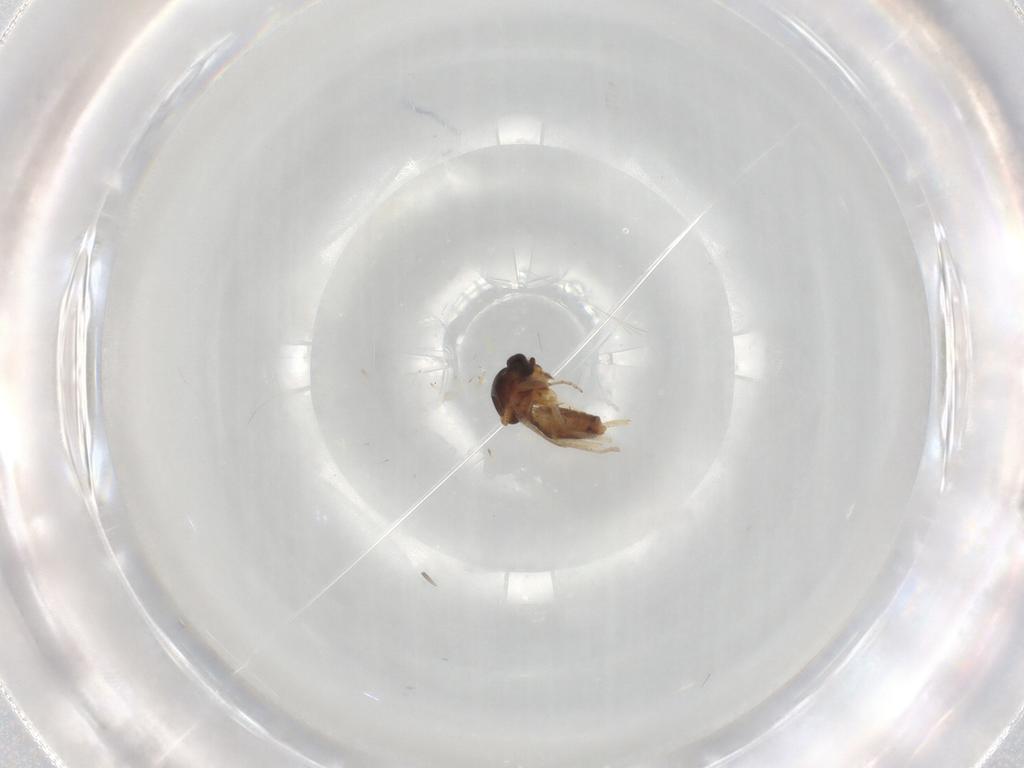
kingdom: Animalia
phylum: Arthropoda
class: Insecta
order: Diptera
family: Ceratopogonidae
